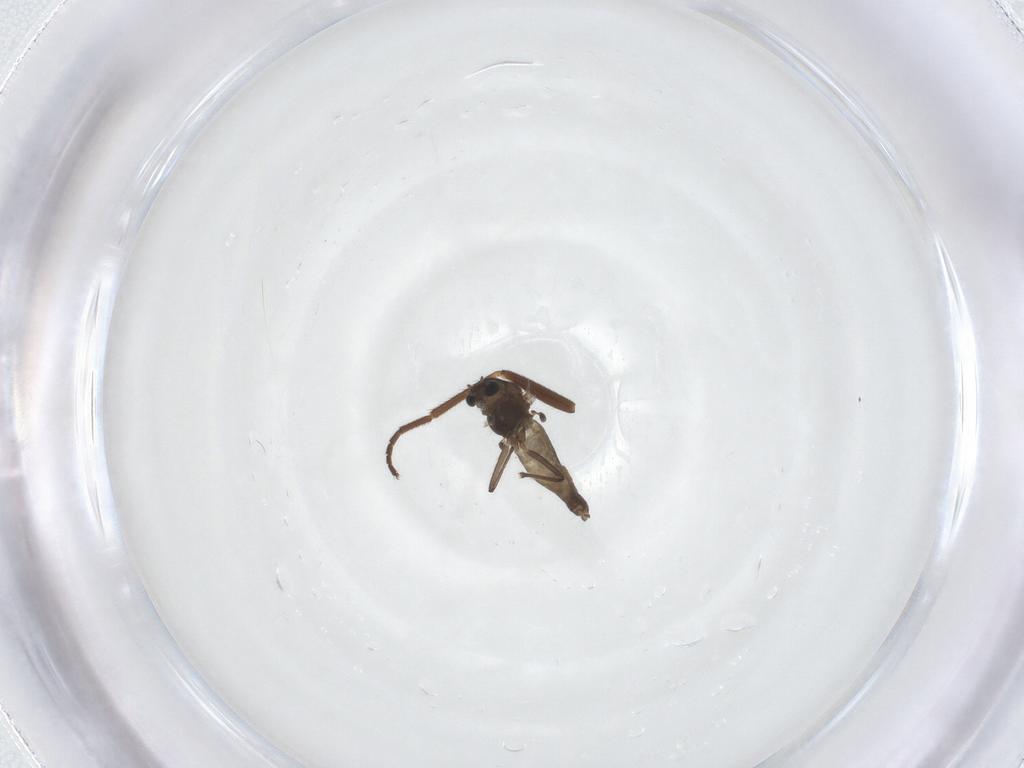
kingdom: Animalia
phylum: Arthropoda
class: Insecta
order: Diptera
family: Chironomidae
